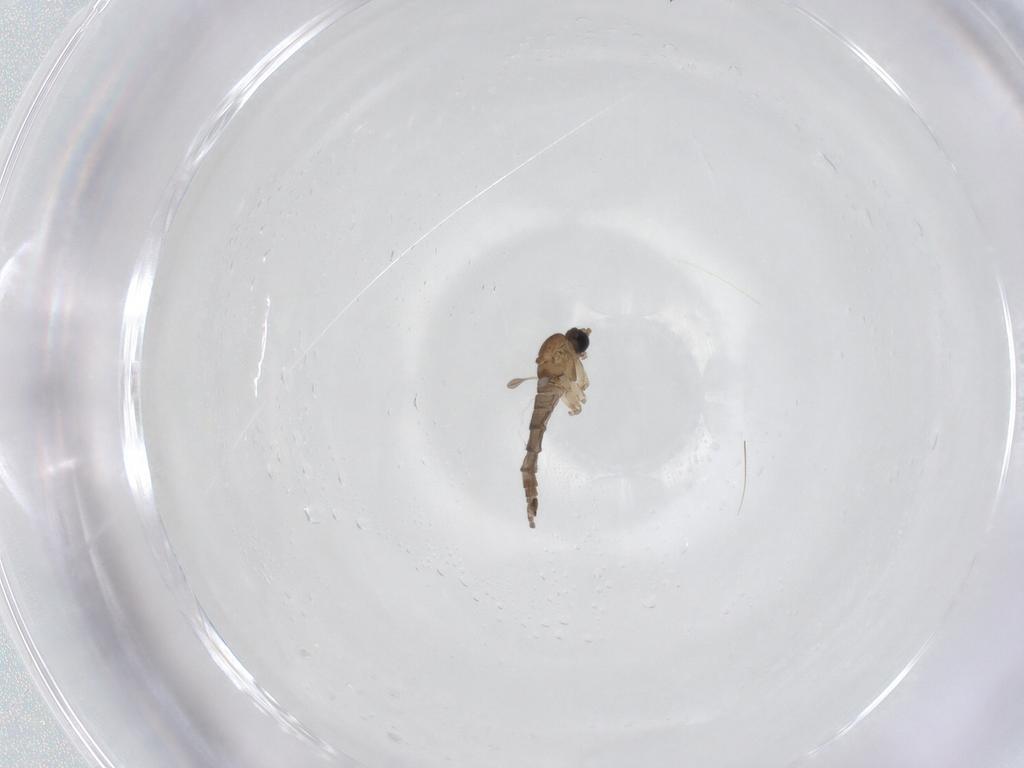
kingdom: Animalia
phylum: Arthropoda
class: Insecta
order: Diptera
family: Sciaridae
